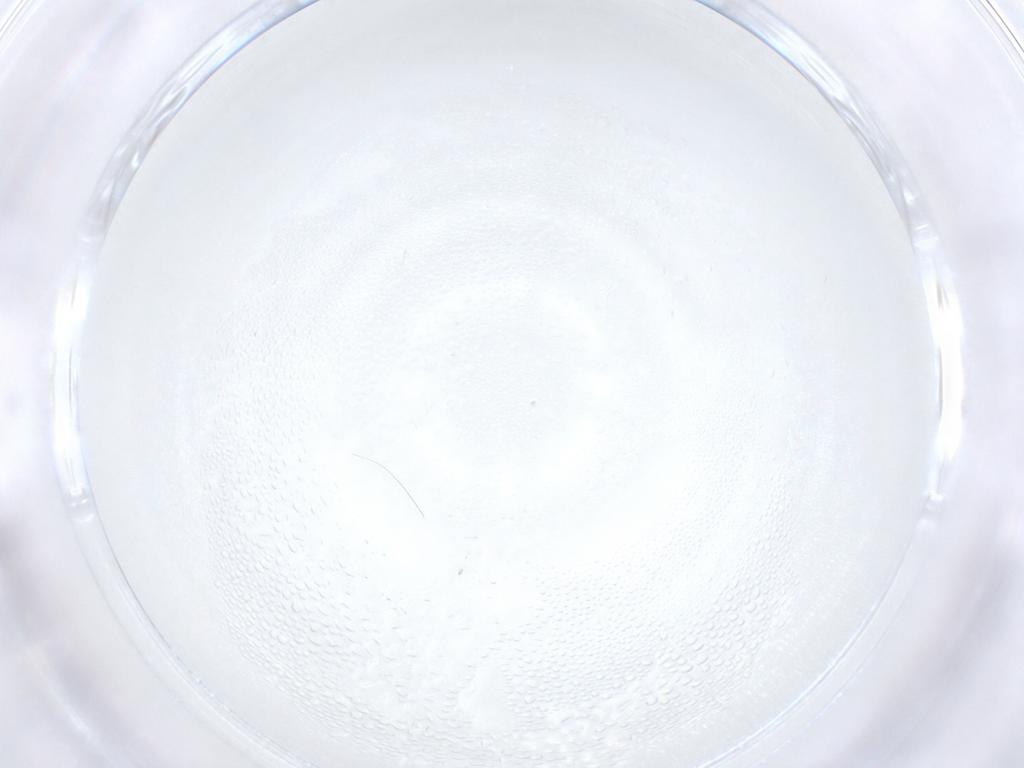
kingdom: Animalia
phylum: Arthropoda
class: Insecta
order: Diptera
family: Cecidomyiidae
